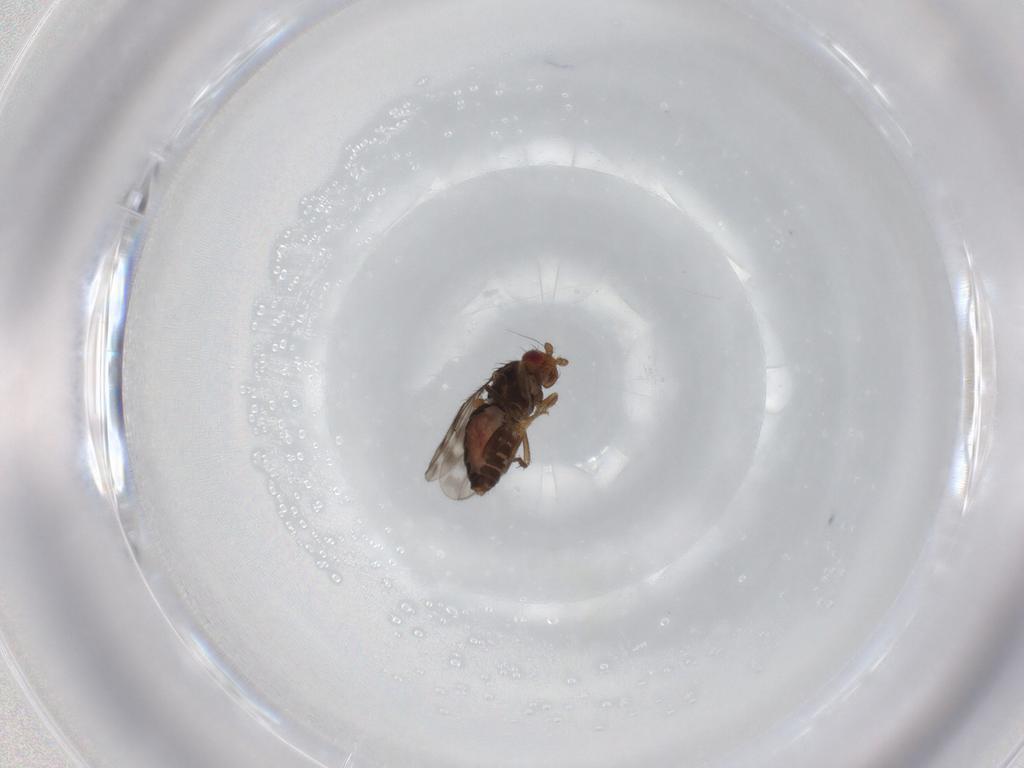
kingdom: Animalia
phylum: Arthropoda
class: Insecta
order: Diptera
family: Sphaeroceridae
